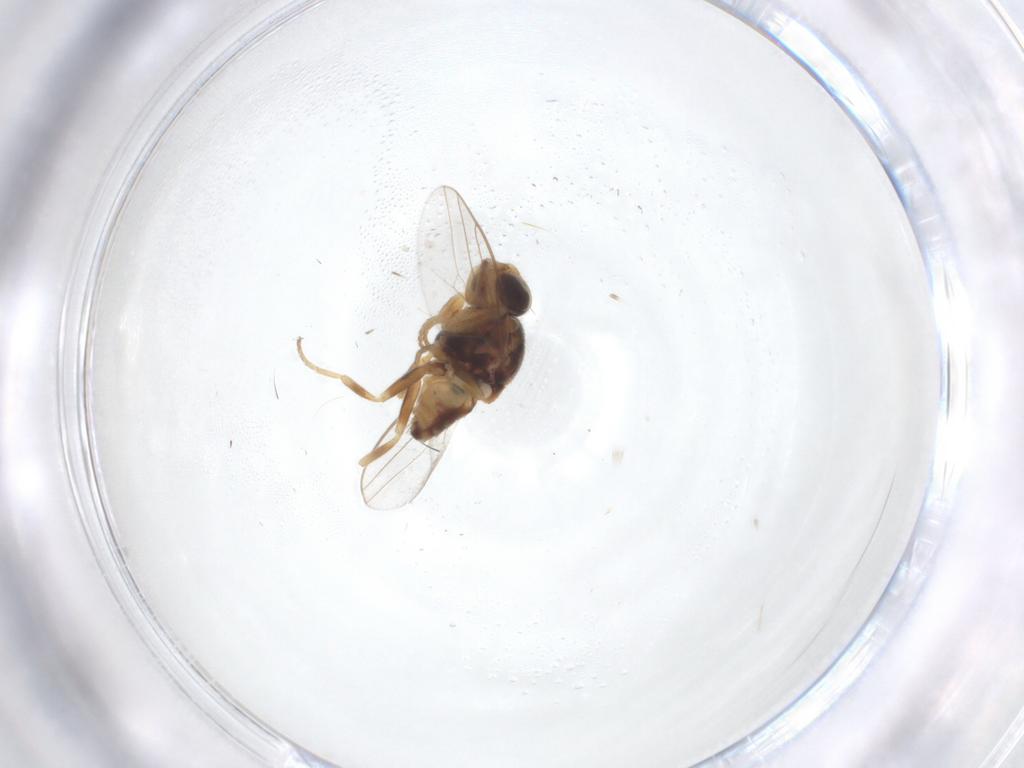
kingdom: Animalia
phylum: Arthropoda
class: Insecta
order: Diptera
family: Chloropidae
